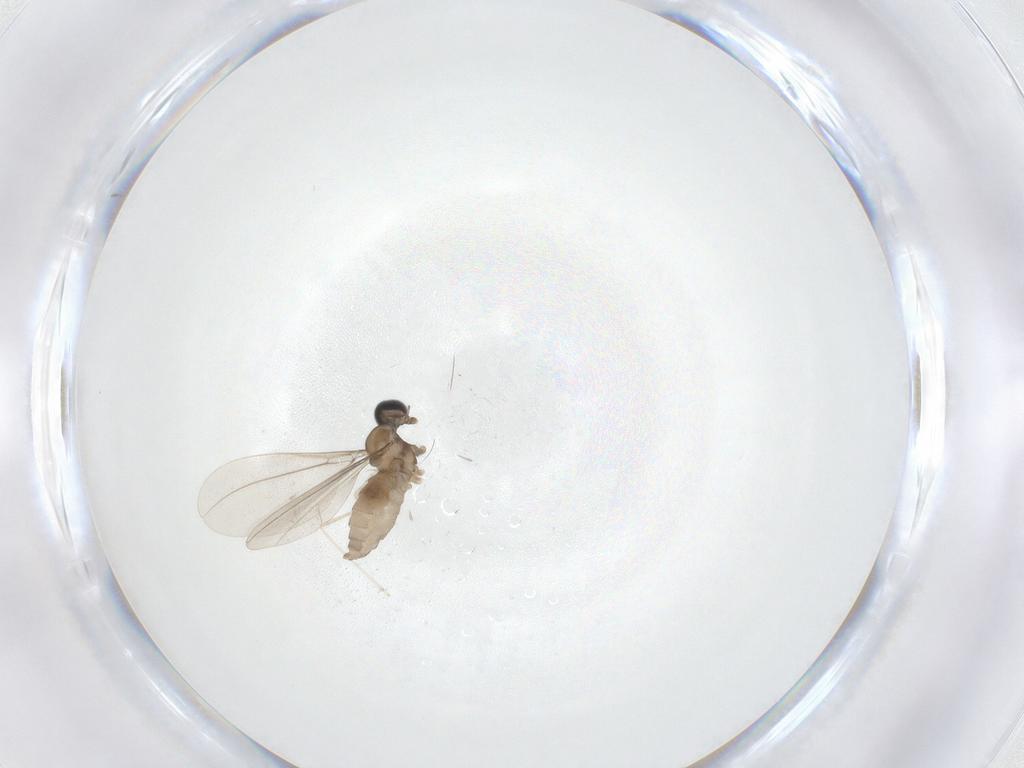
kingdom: Animalia
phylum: Arthropoda
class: Insecta
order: Diptera
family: Cecidomyiidae
